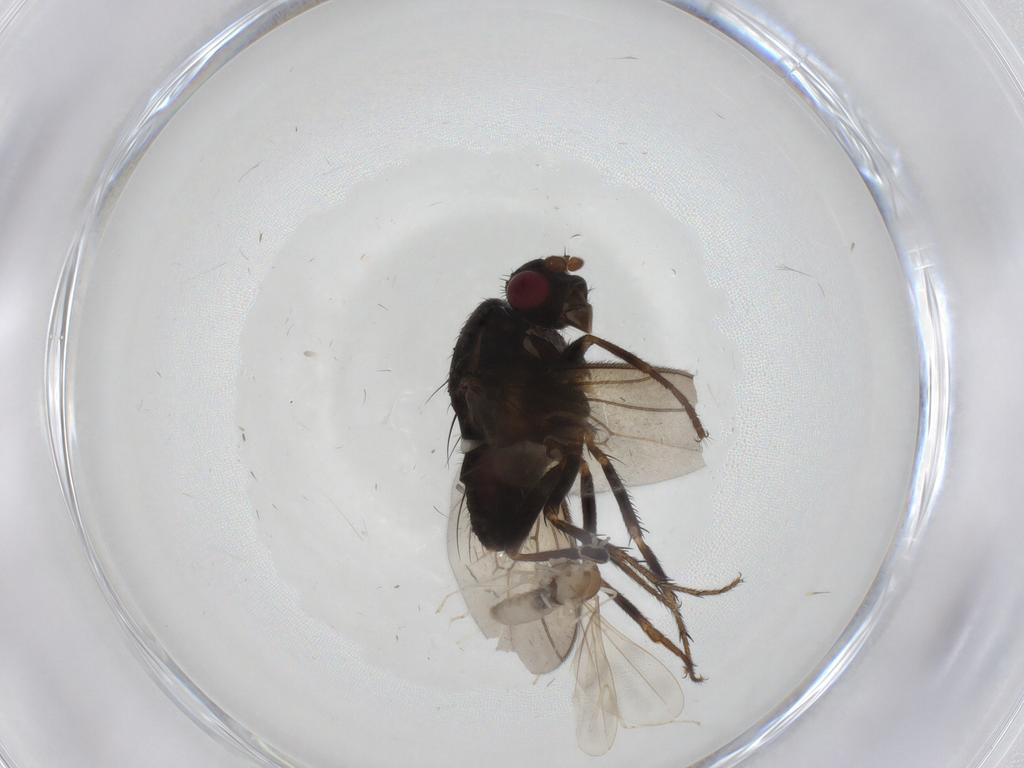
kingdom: Animalia
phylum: Arthropoda
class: Insecta
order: Diptera
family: Sphaeroceridae
